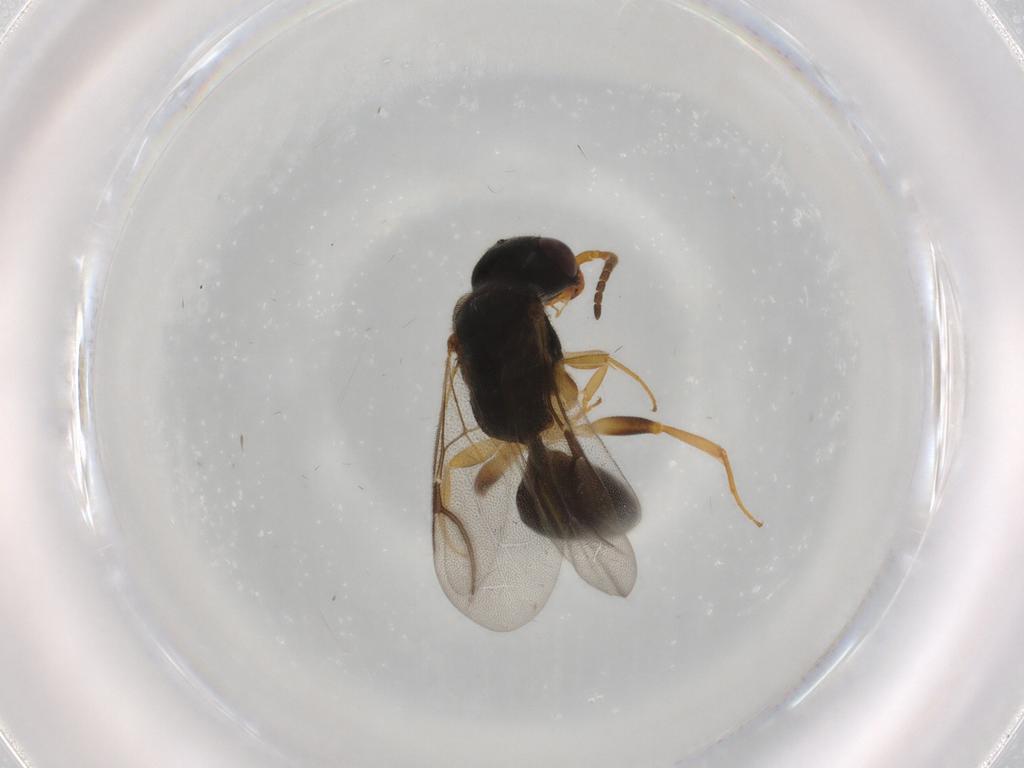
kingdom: Animalia
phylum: Arthropoda
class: Insecta
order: Hymenoptera
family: Bethylidae
